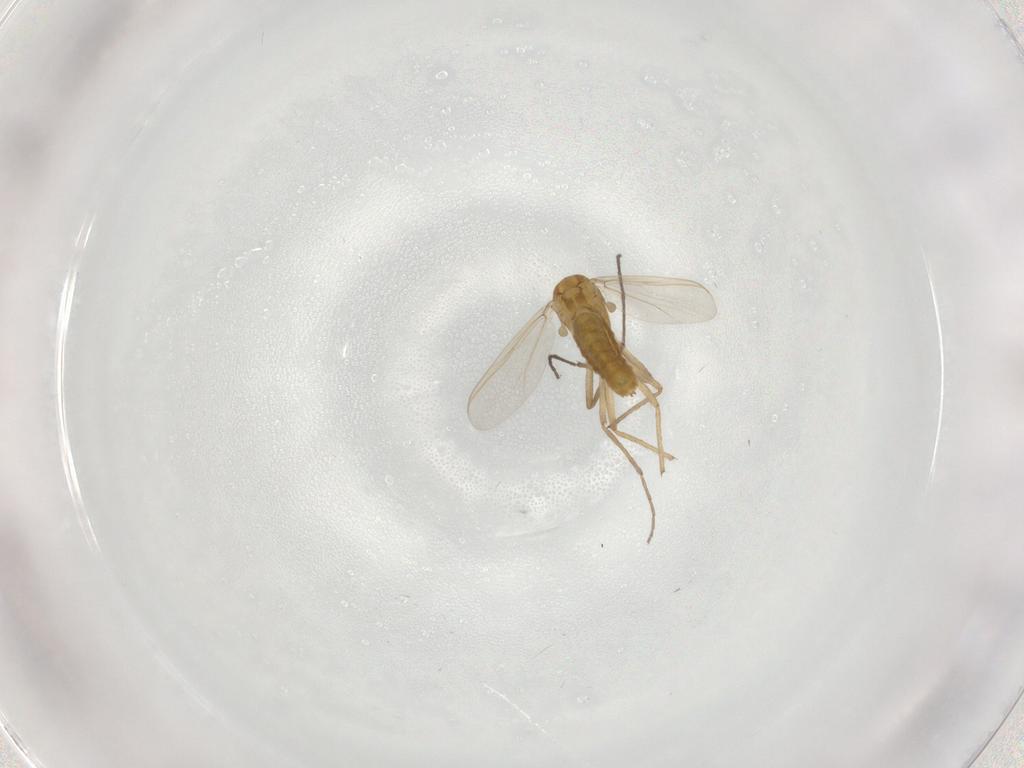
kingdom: Animalia
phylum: Arthropoda
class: Insecta
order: Diptera
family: Chironomidae
